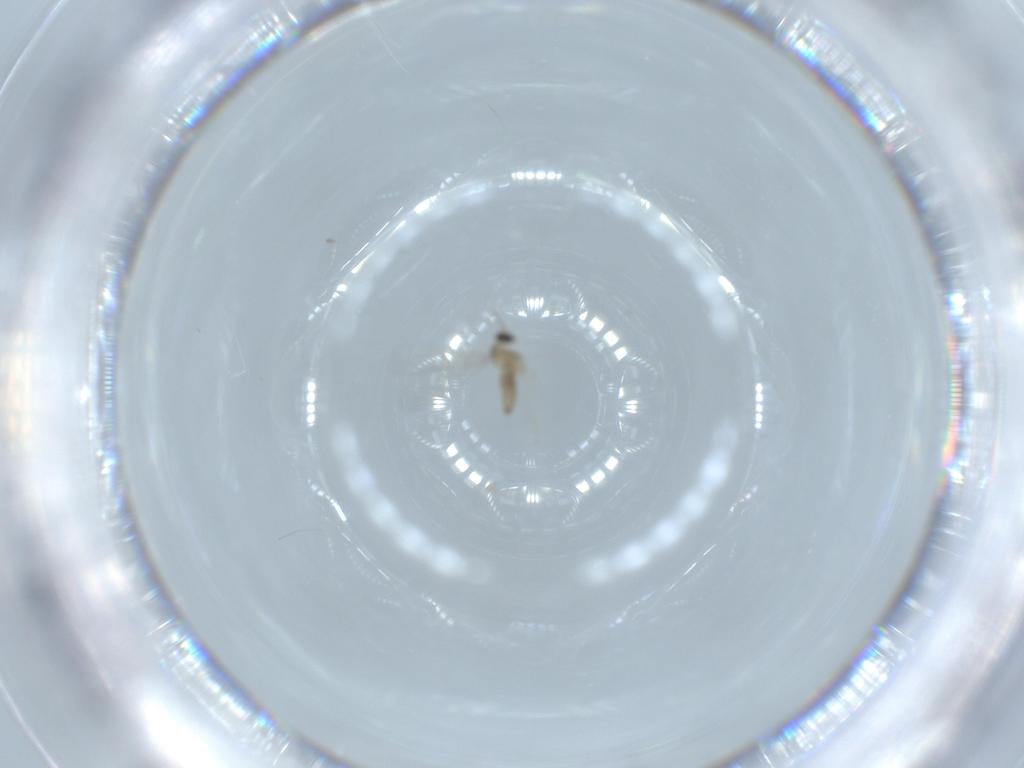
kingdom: Animalia
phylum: Arthropoda
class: Insecta
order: Diptera
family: Cecidomyiidae
